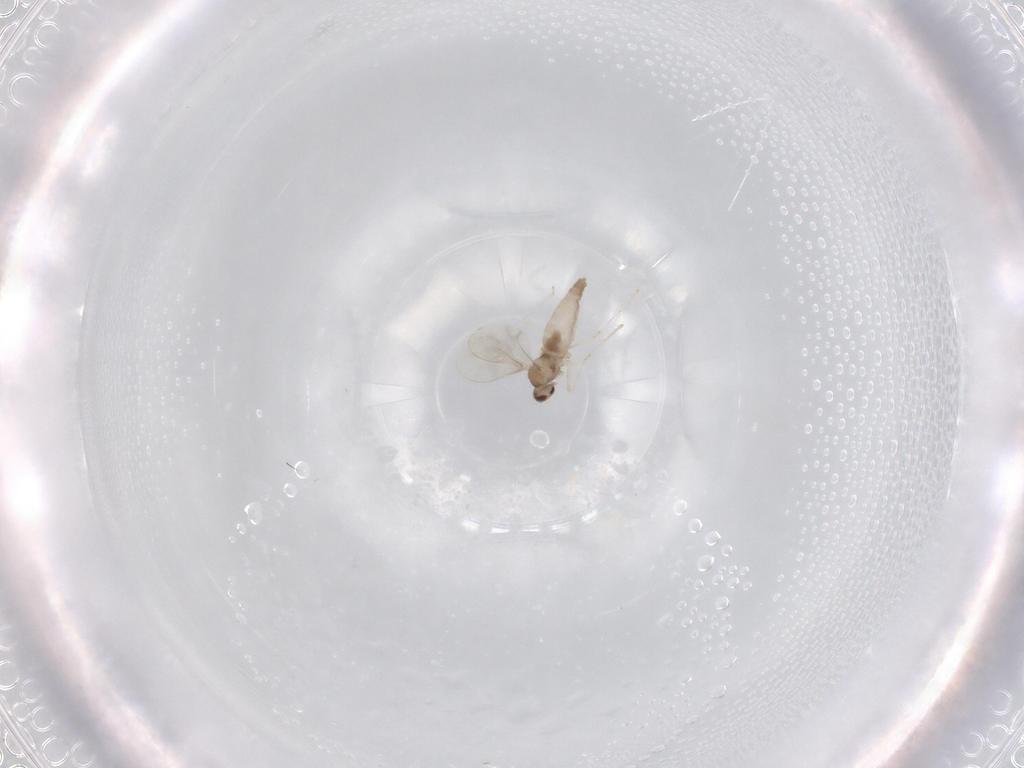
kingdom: Animalia
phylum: Arthropoda
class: Insecta
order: Diptera
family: Cecidomyiidae
